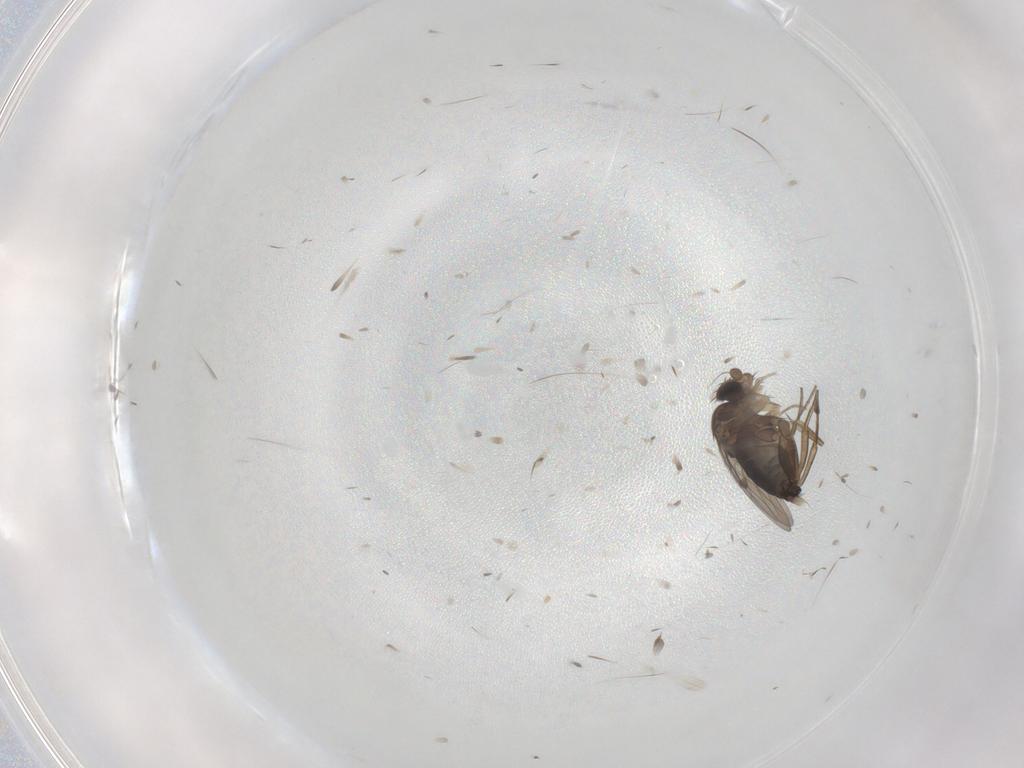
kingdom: Animalia
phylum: Arthropoda
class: Insecta
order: Diptera
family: Phoridae
